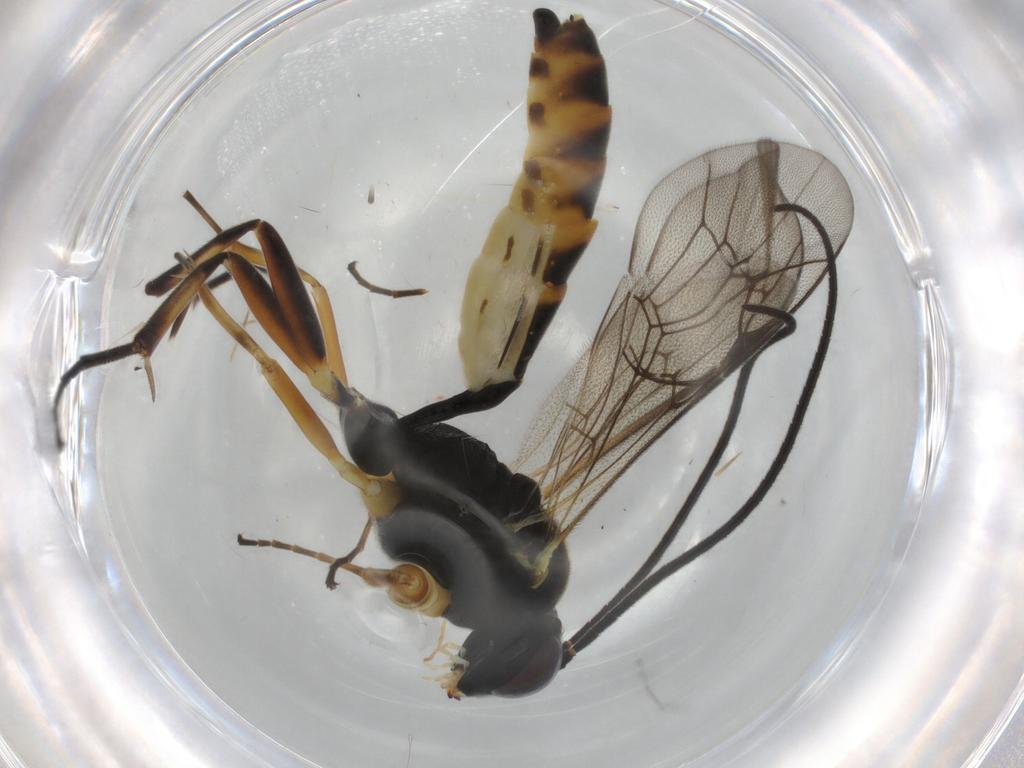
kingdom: Animalia
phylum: Arthropoda
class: Insecta
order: Hymenoptera
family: Ichneumonidae
